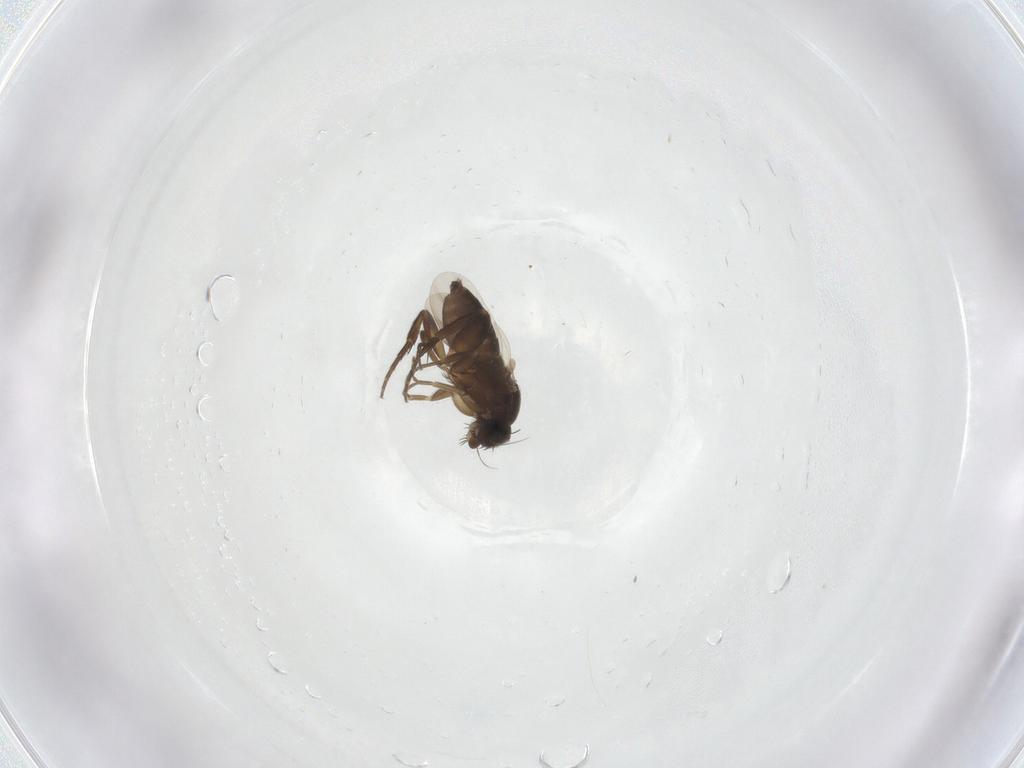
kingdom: Animalia
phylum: Arthropoda
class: Insecta
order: Diptera
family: Phoridae
